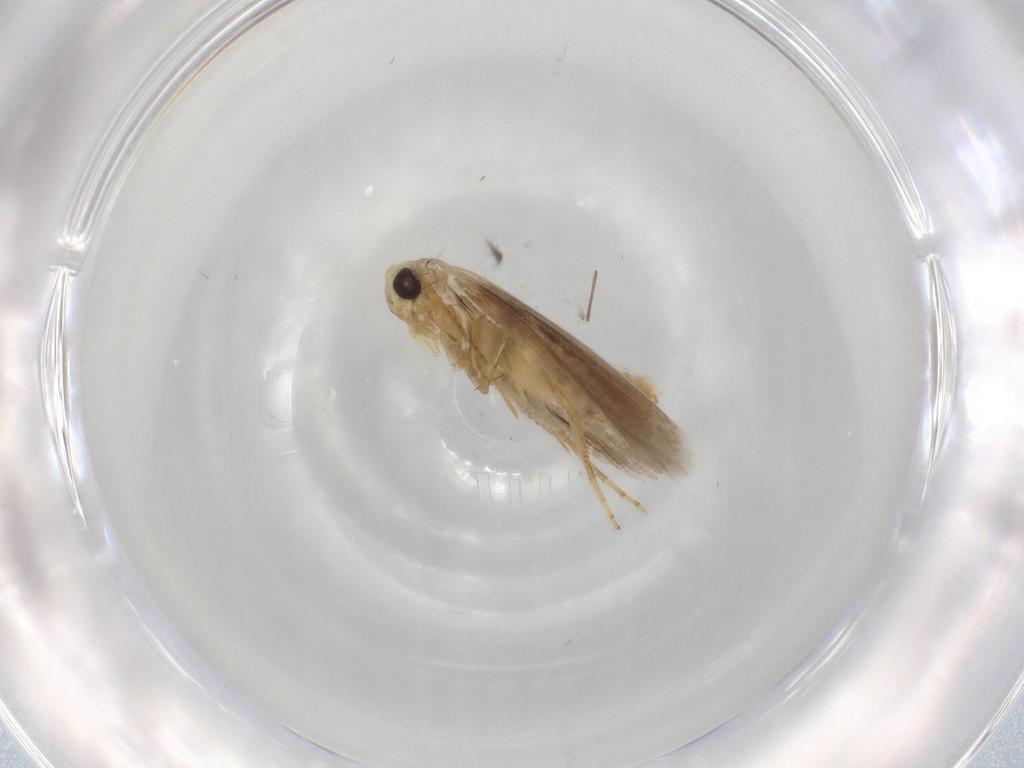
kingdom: Animalia
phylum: Arthropoda
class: Insecta
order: Lepidoptera
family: Bucculatricidae
